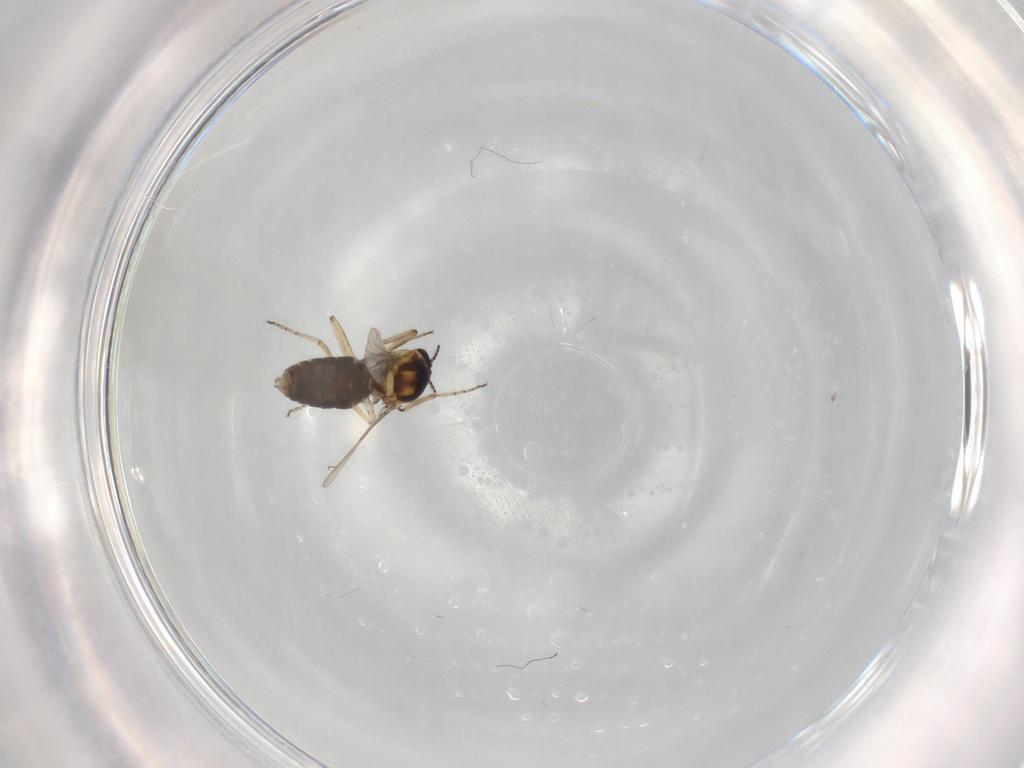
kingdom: Animalia
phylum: Arthropoda
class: Insecta
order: Diptera
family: Ceratopogonidae
